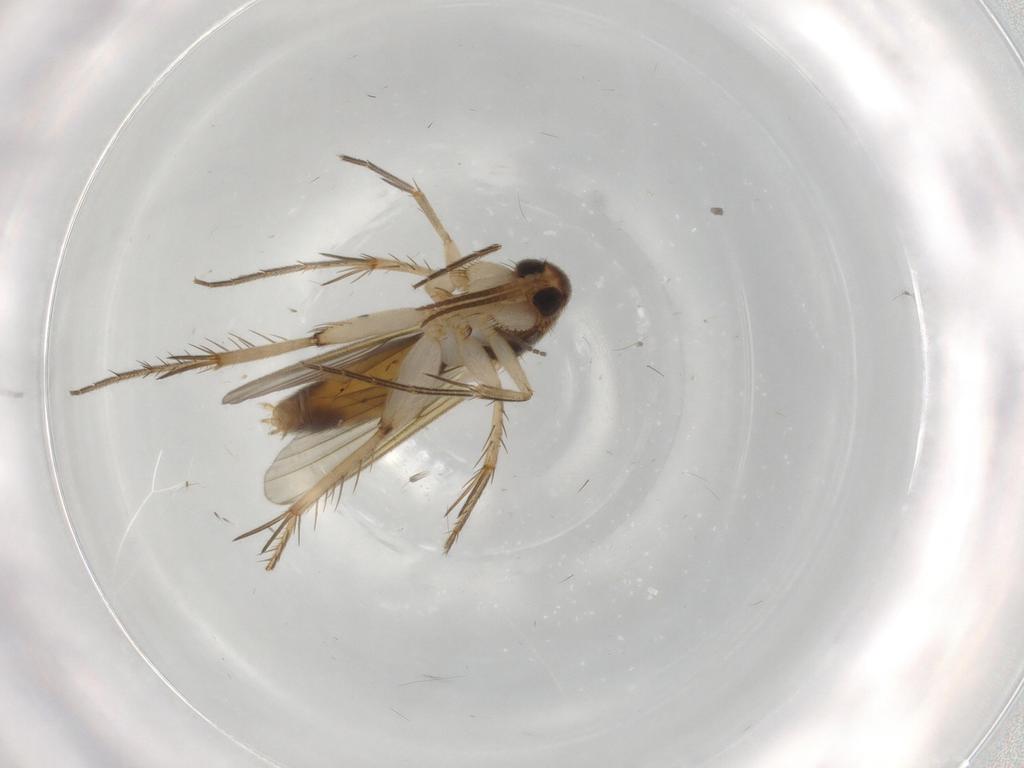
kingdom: Animalia
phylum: Arthropoda
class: Insecta
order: Diptera
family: Mycetophilidae
